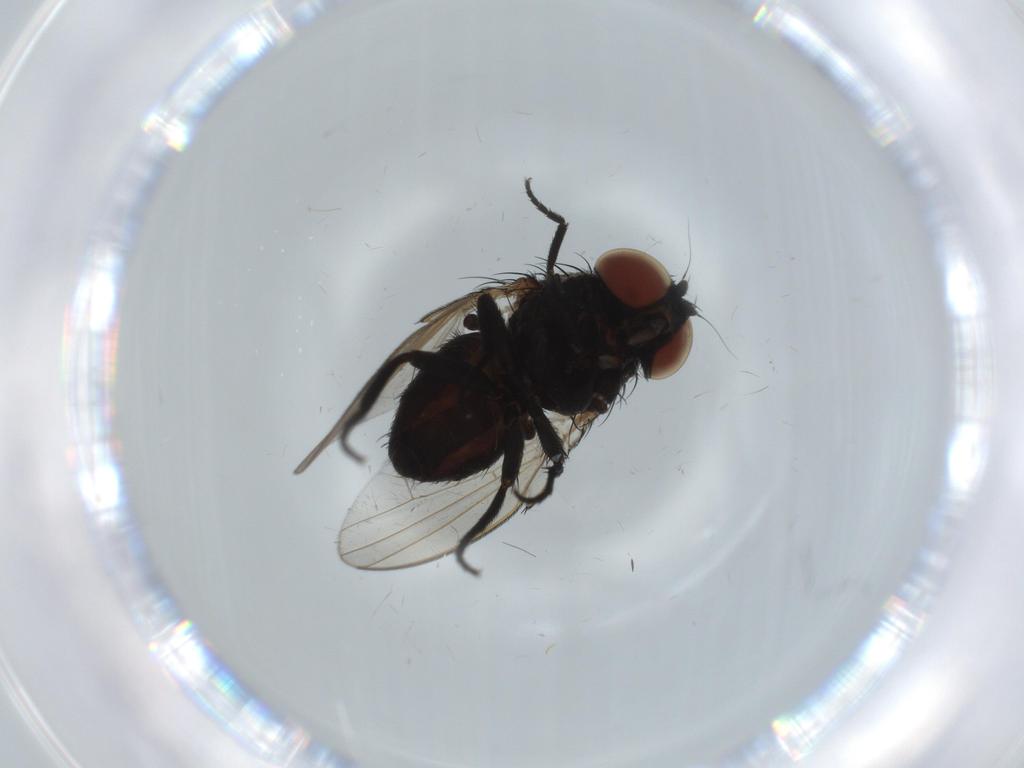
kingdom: Animalia
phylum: Arthropoda
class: Insecta
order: Diptera
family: Milichiidae
